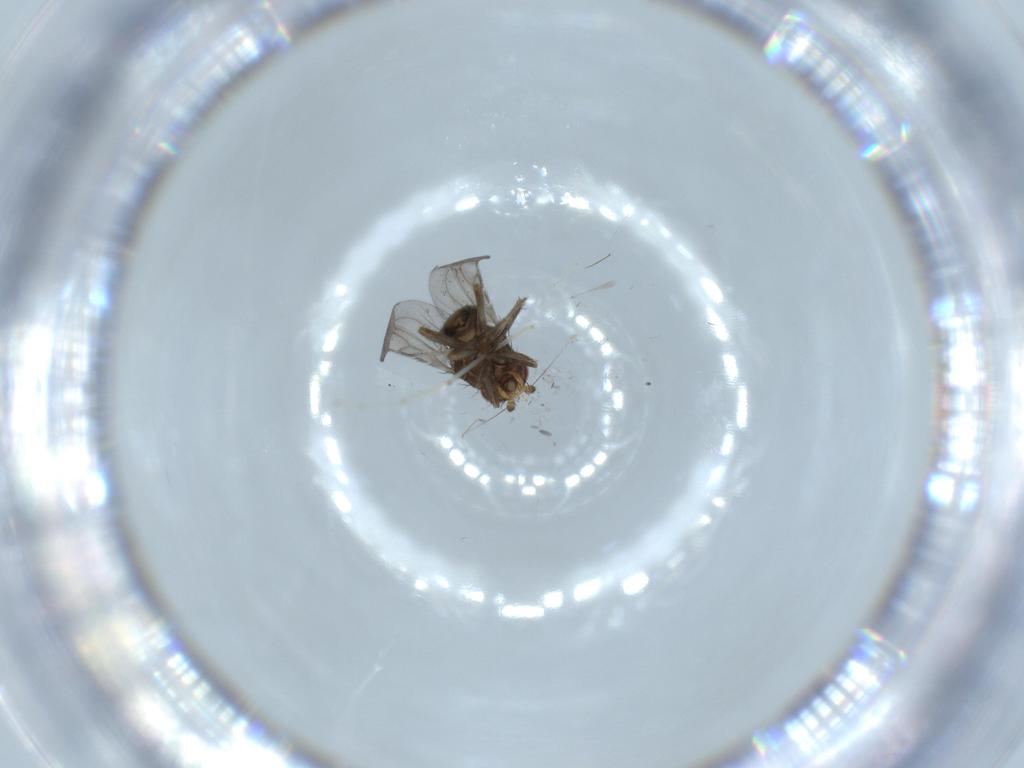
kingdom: Animalia
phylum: Arthropoda
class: Insecta
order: Diptera
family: Cecidomyiidae
